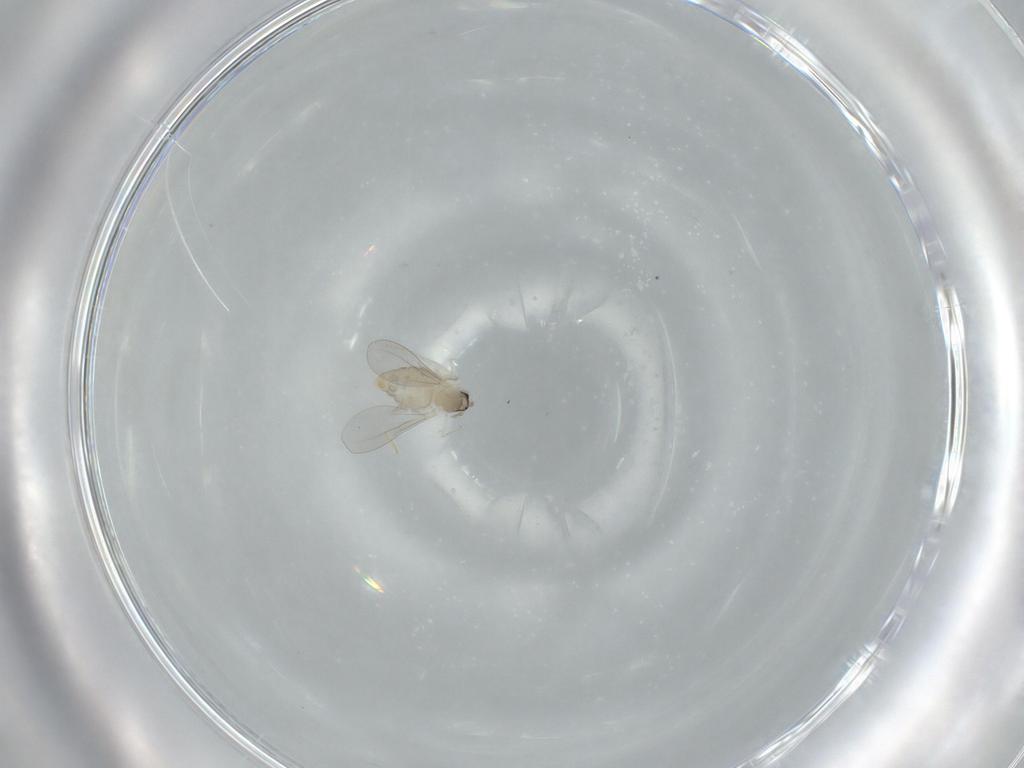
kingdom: Animalia
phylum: Arthropoda
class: Insecta
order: Diptera
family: Cecidomyiidae
